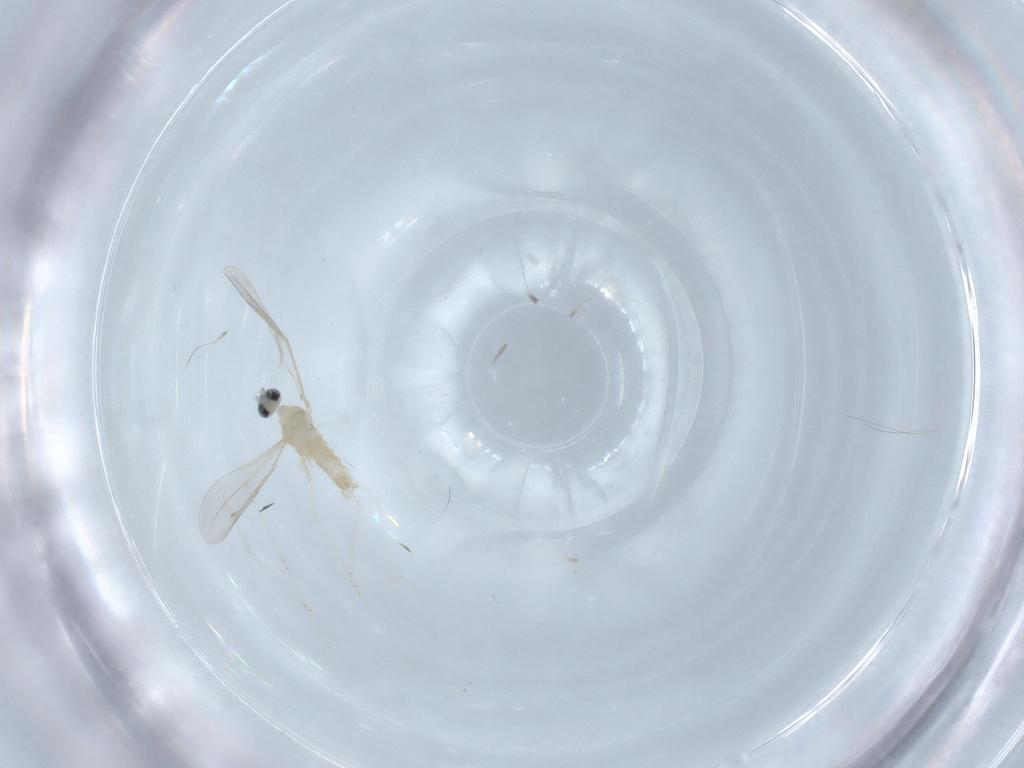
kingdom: Animalia
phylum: Arthropoda
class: Insecta
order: Diptera
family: Cecidomyiidae
